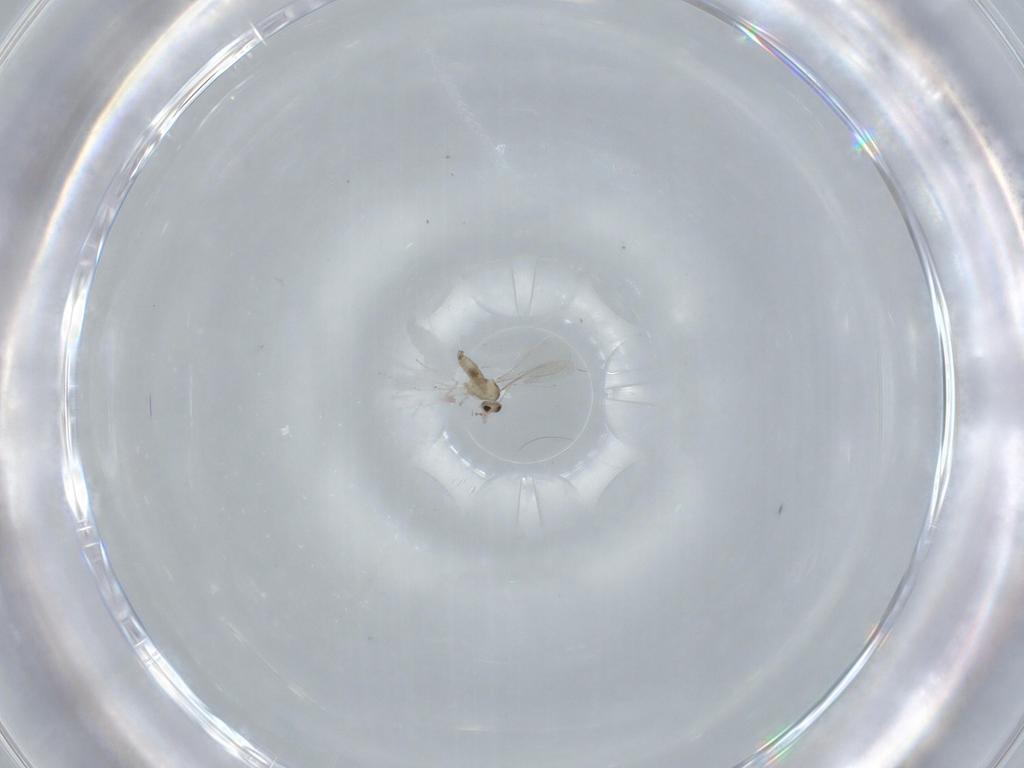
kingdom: Animalia
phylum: Arthropoda
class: Insecta
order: Diptera
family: Cecidomyiidae
